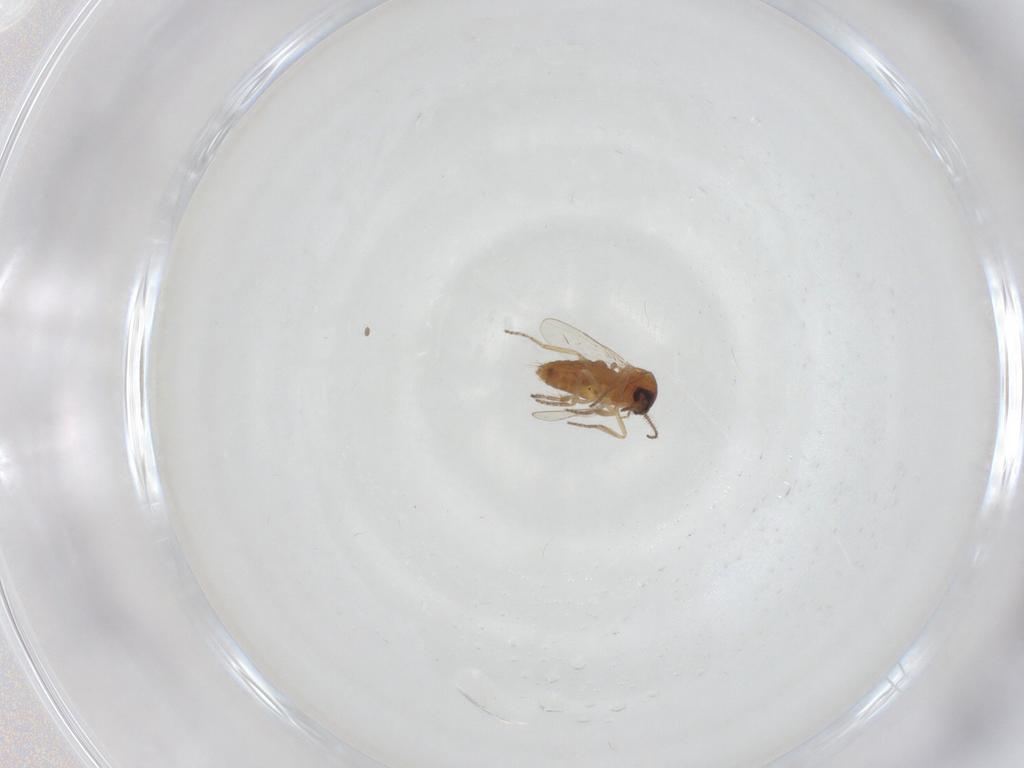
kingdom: Animalia
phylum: Arthropoda
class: Insecta
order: Diptera
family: Ceratopogonidae
